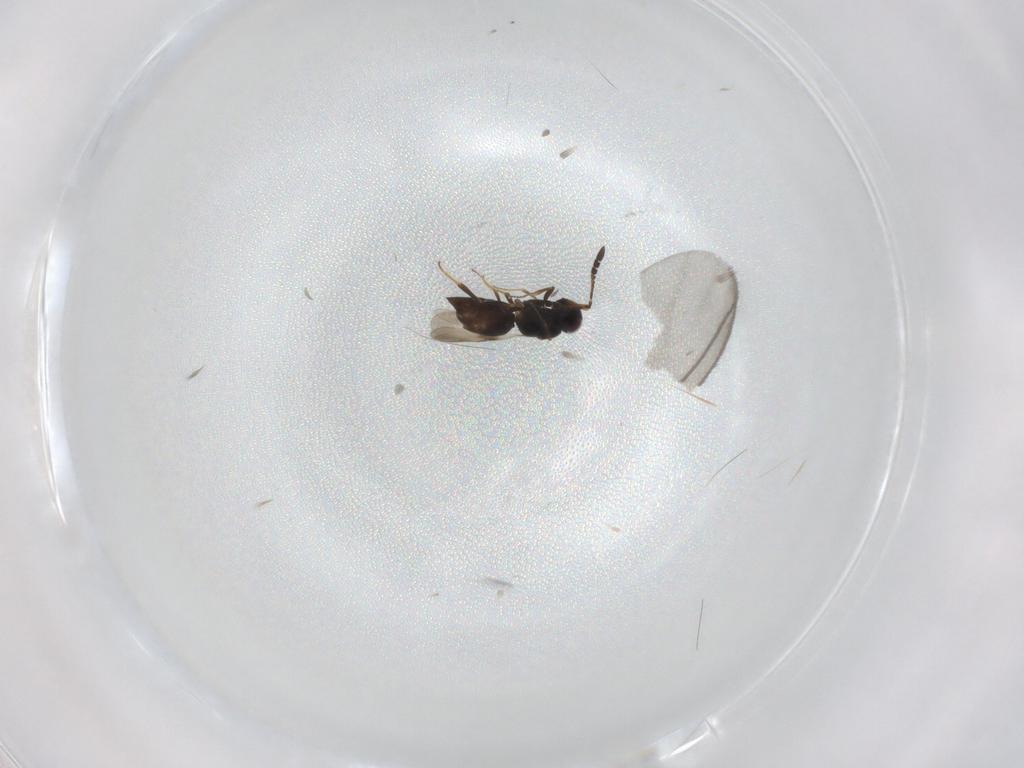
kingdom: Animalia
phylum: Arthropoda
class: Insecta
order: Hymenoptera
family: Ceraphronidae
